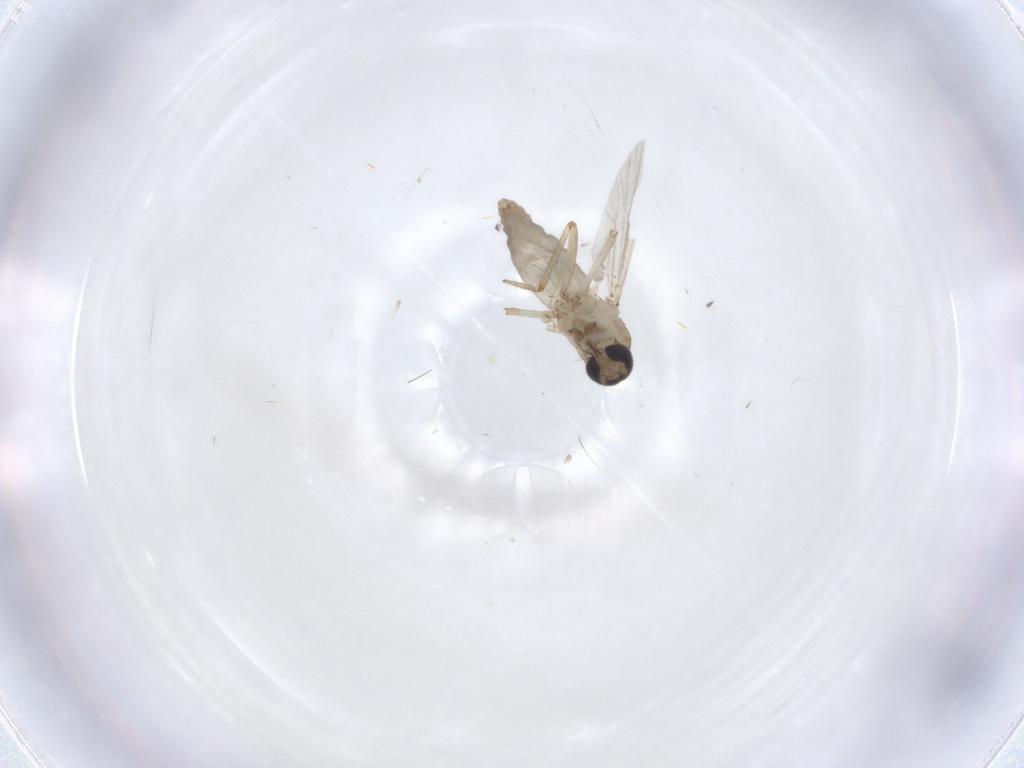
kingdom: Animalia
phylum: Arthropoda
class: Insecta
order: Diptera
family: Ceratopogonidae
